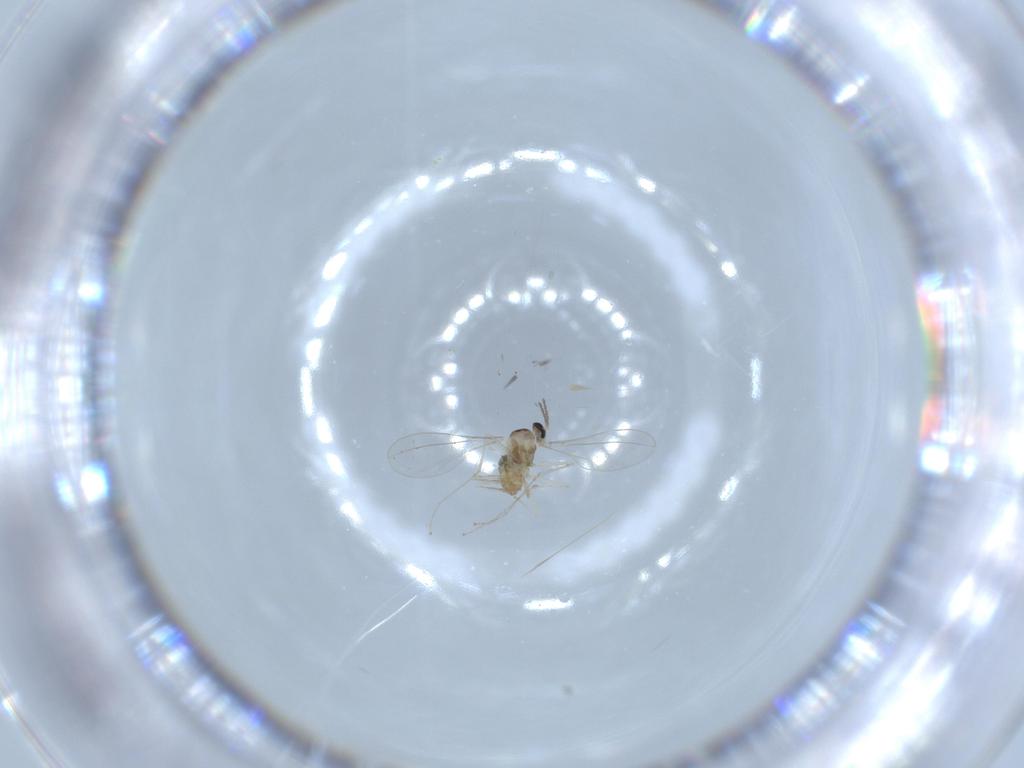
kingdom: Animalia
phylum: Arthropoda
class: Insecta
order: Diptera
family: Cecidomyiidae
